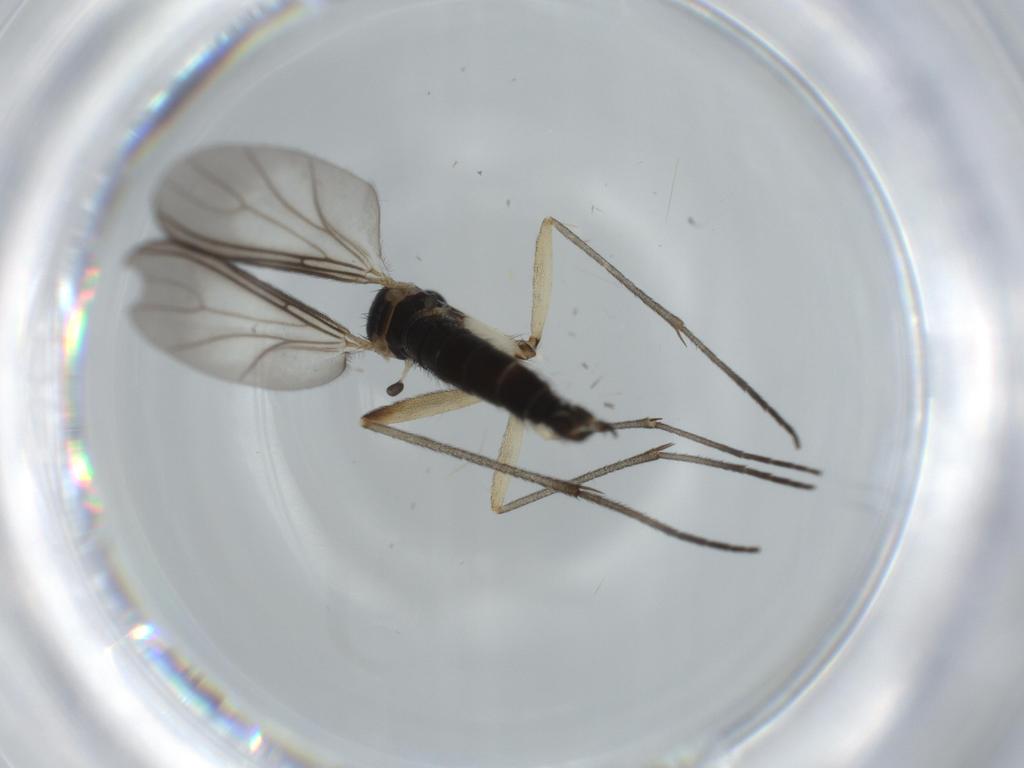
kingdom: Animalia
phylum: Arthropoda
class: Insecta
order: Diptera
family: Sciaridae
